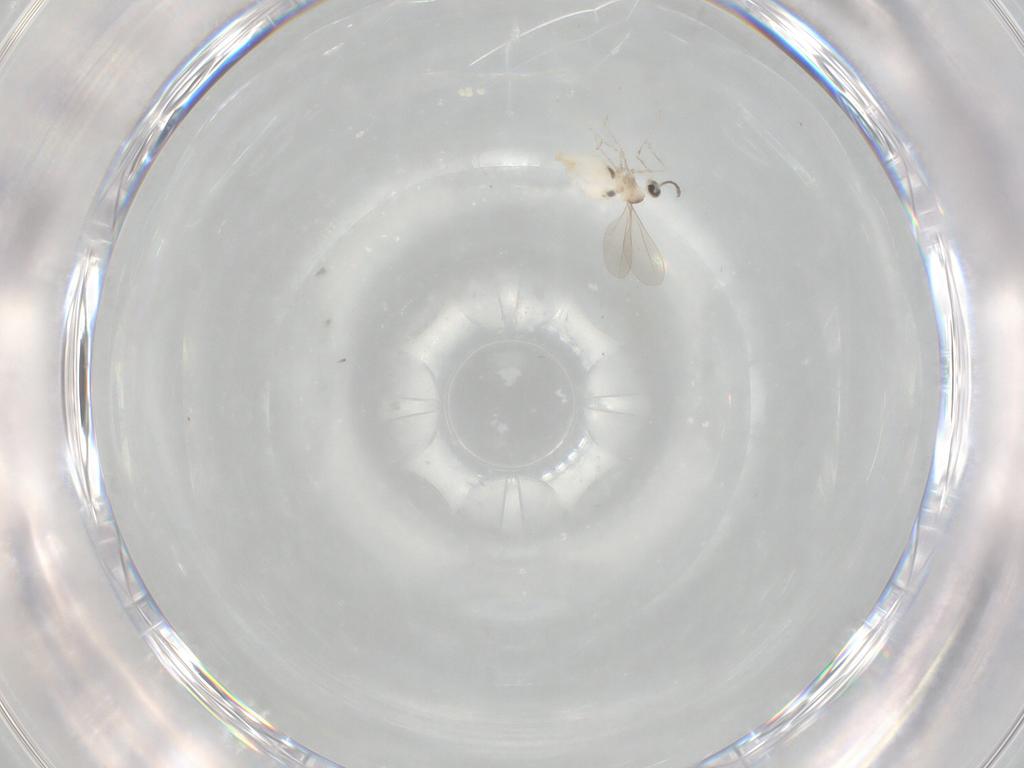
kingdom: Animalia
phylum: Arthropoda
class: Insecta
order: Diptera
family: Cecidomyiidae
